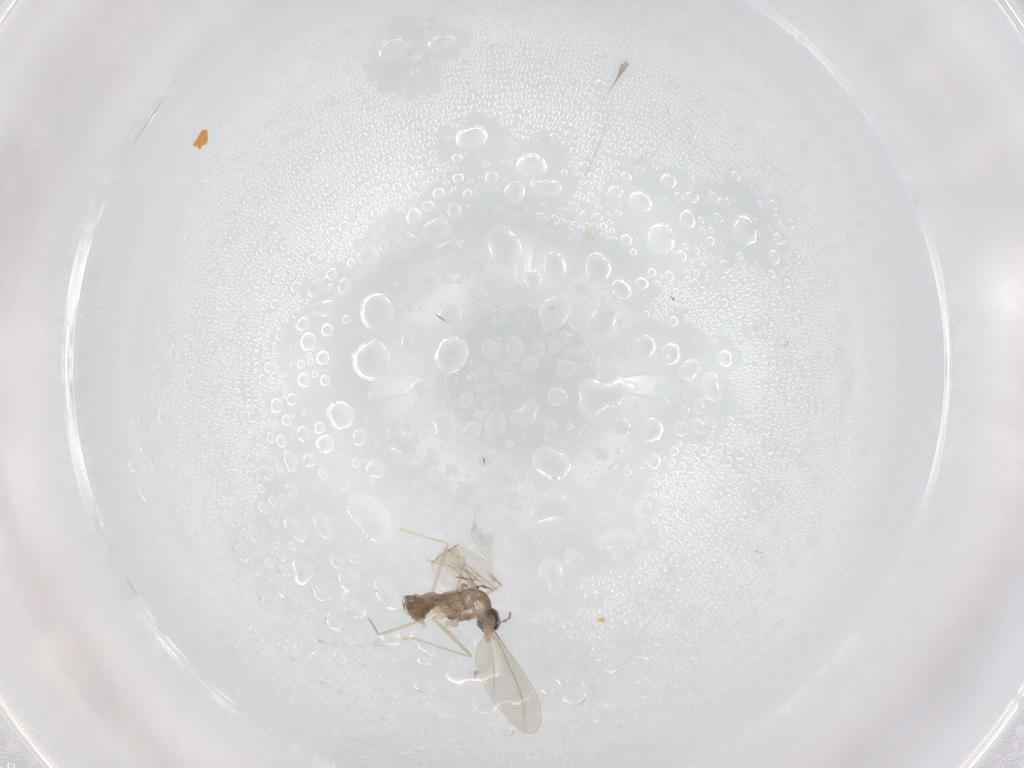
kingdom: Animalia
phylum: Arthropoda
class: Insecta
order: Diptera
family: Cecidomyiidae
